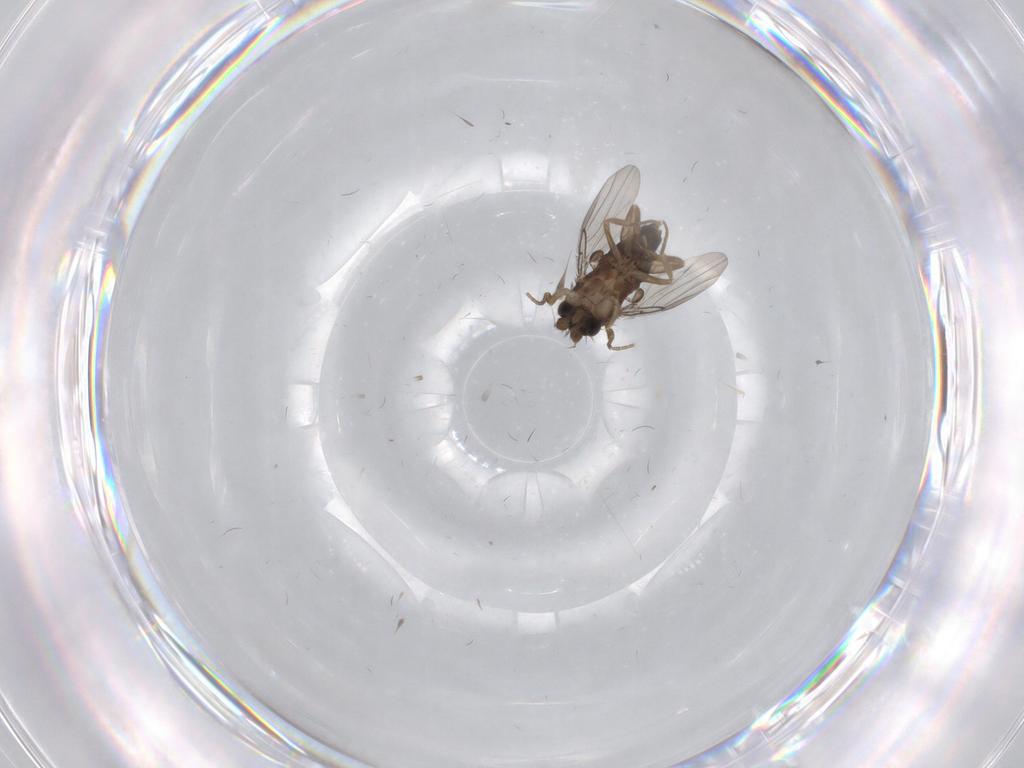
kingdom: Animalia
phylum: Arthropoda
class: Insecta
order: Diptera
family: Phoridae
